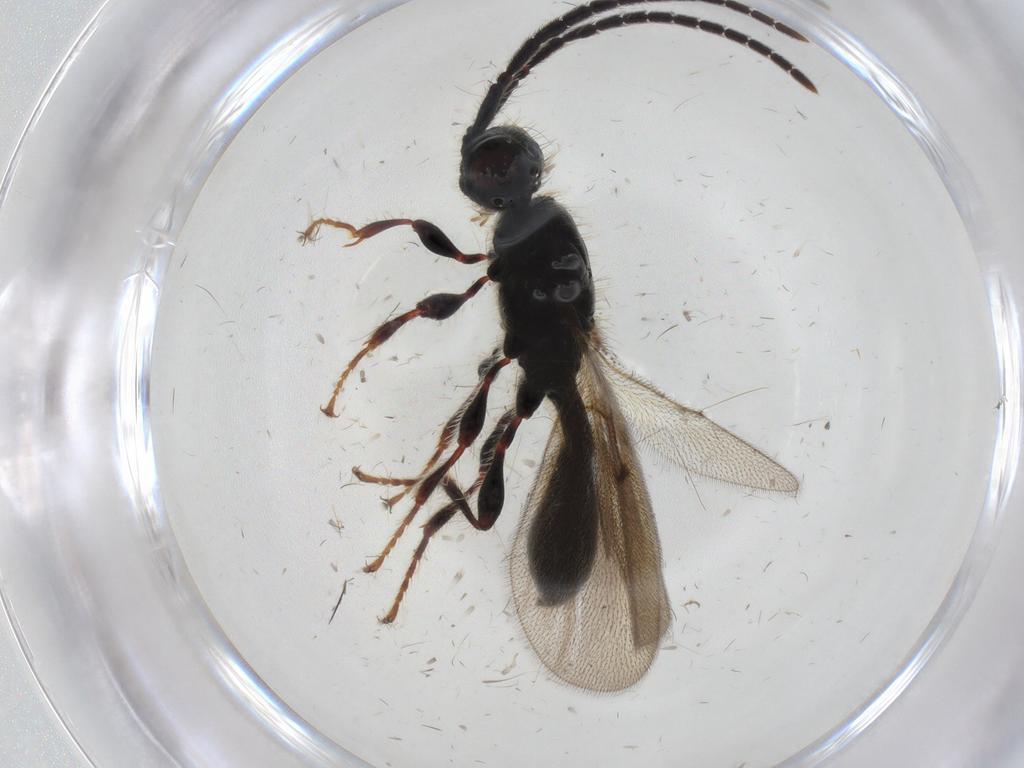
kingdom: Animalia
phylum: Arthropoda
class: Insecta
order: Hymenoptera
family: Diapriidae
